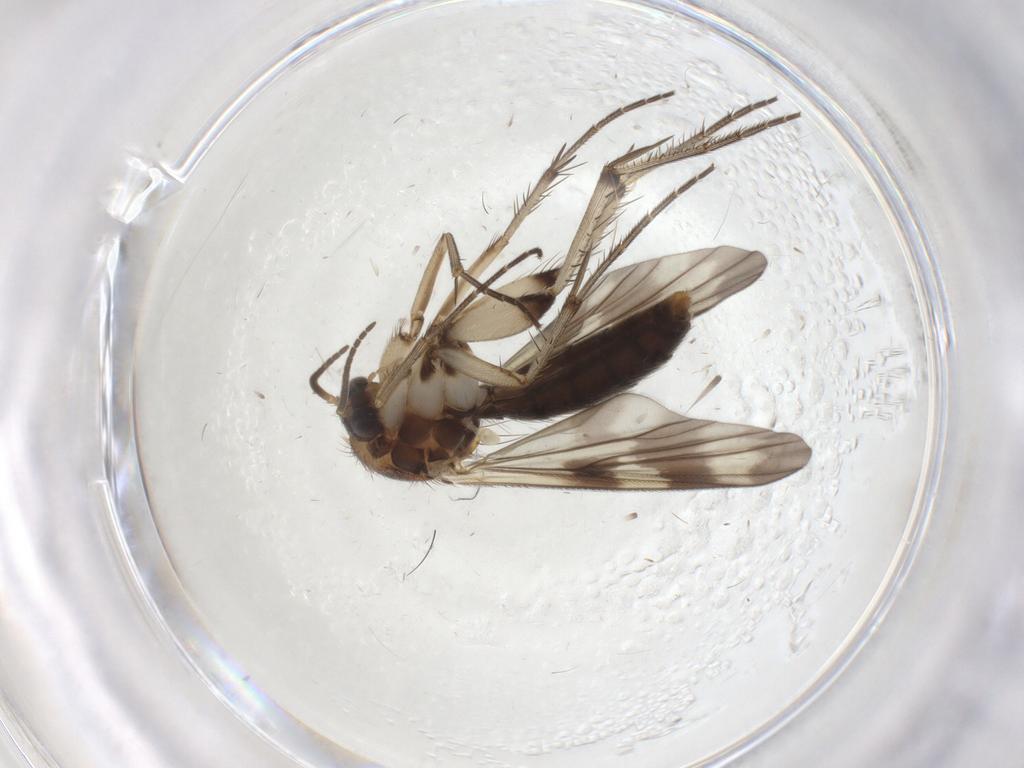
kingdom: Animalia
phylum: Arthropoda
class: Insecta
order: Diptera
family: Mycetophilidae
